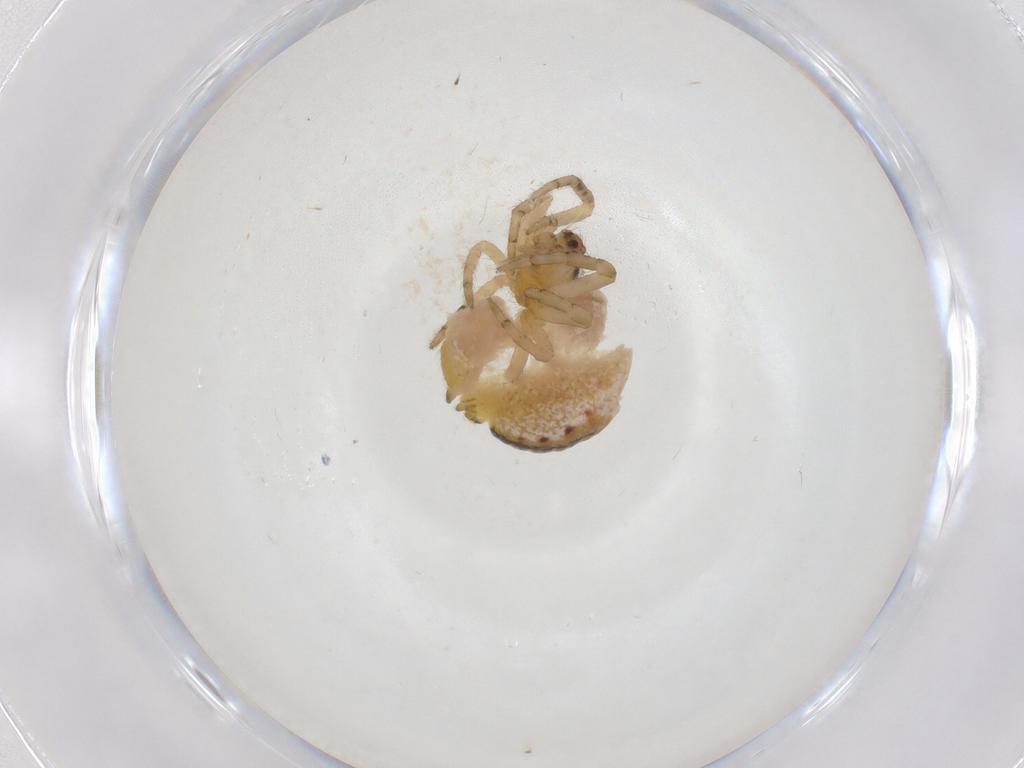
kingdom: Animalia
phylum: Arthropoda
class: Arachnida
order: Araneae
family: Araneidae
